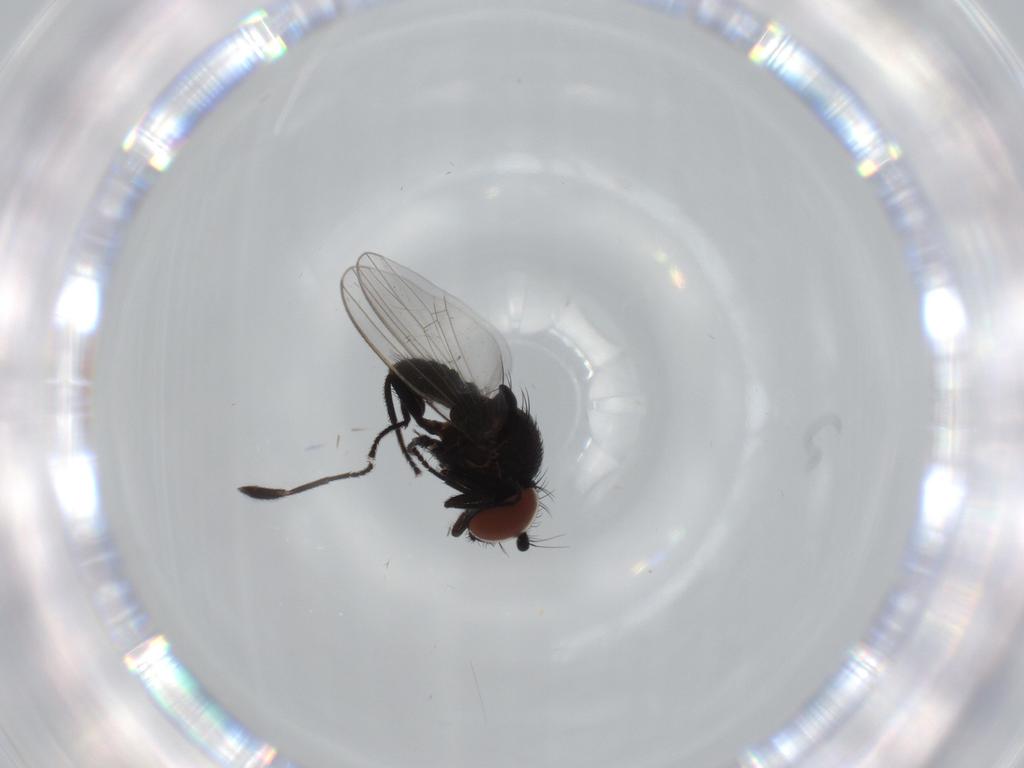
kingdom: Animalia
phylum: Arthropoda
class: Insecta
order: Diptera
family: Milichiidae
